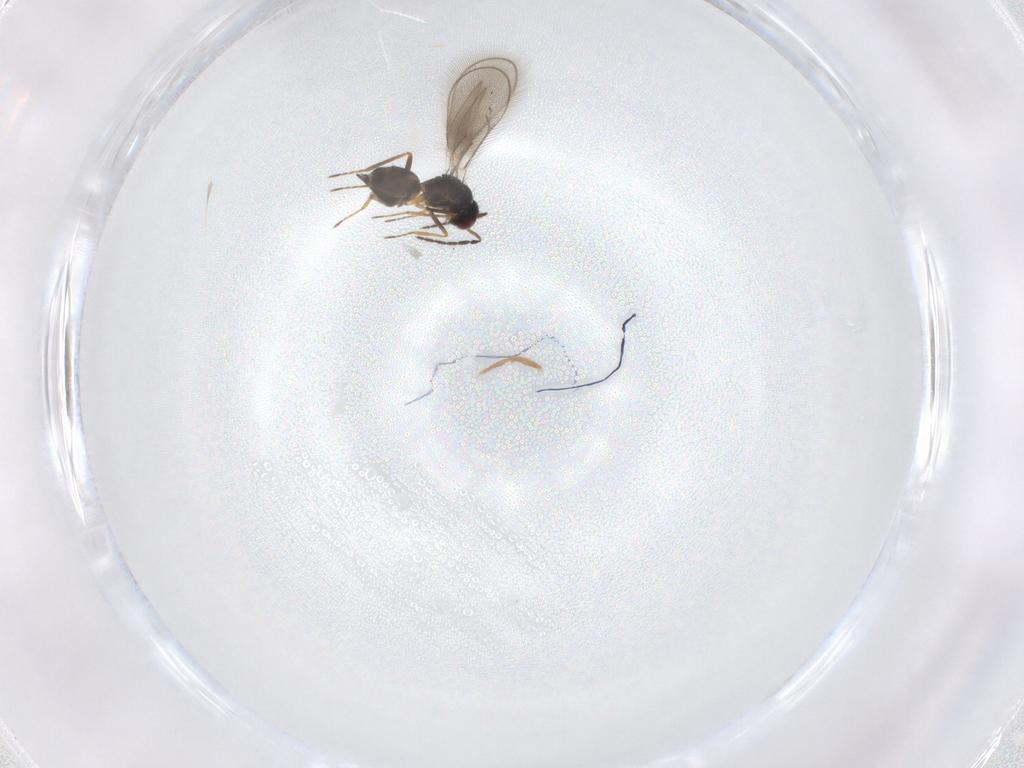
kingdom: Animalia
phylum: Arthropoda
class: Insecta
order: Hymenoptera
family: Eulophidae
